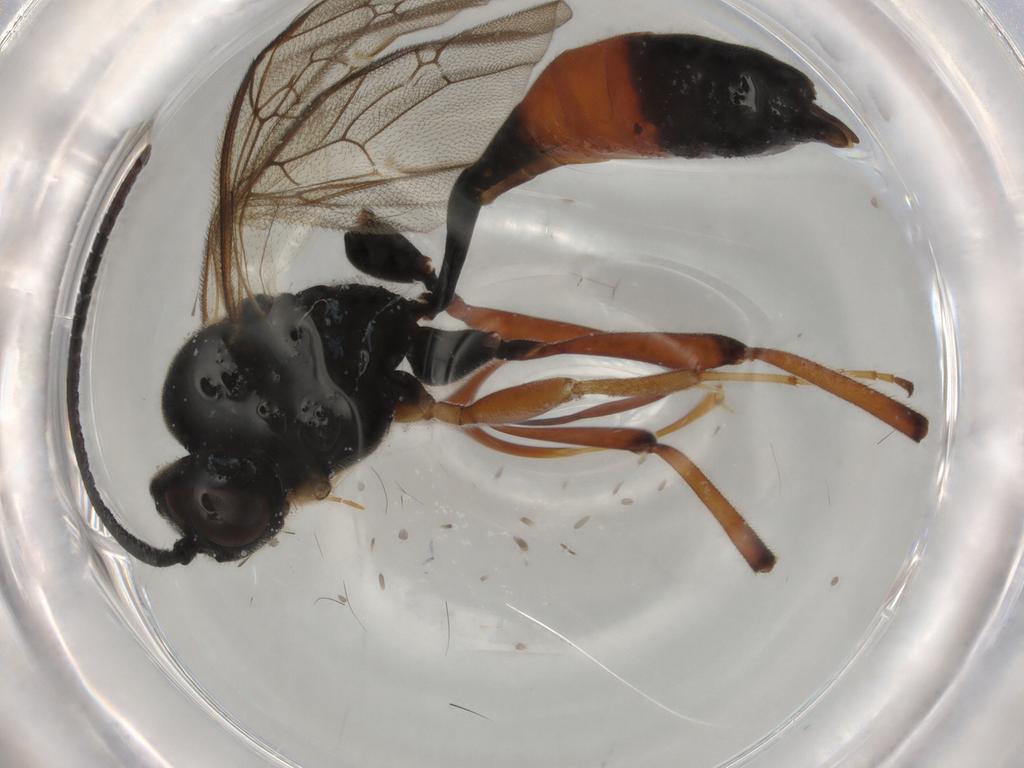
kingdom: Animalia
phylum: Arthropoda
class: Insecta
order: Hymenoptera
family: Ichneumonidae
